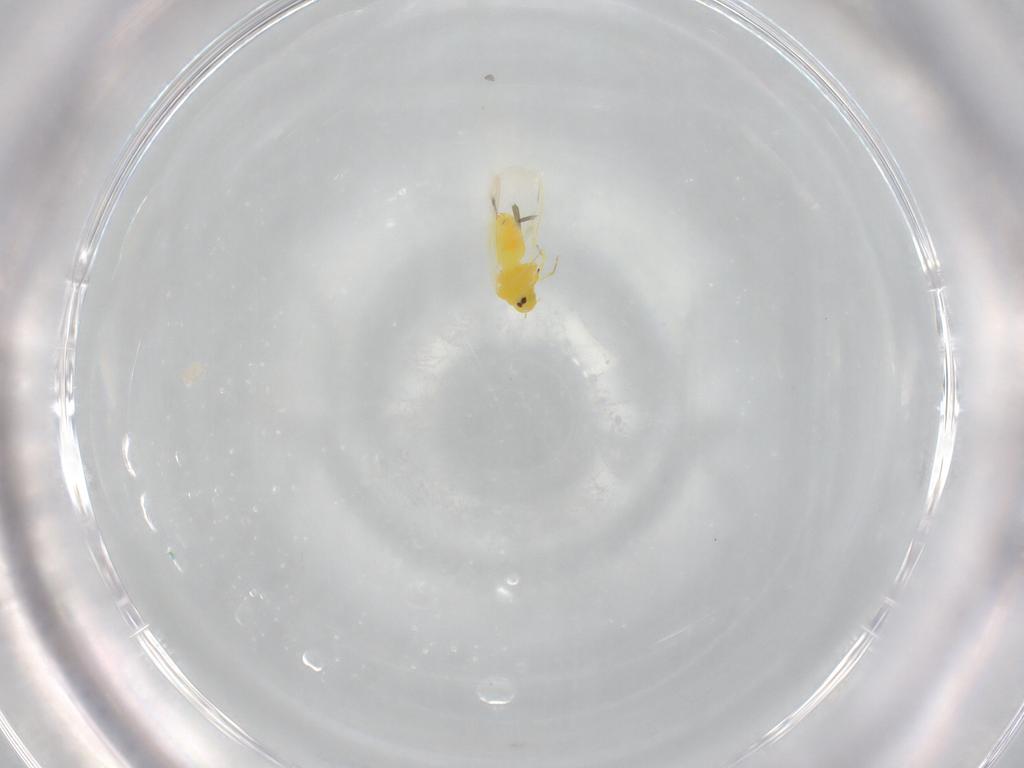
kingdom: Animalia
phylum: Arthropoda
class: Insecta
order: Hemiptera
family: Aleyrodidae
